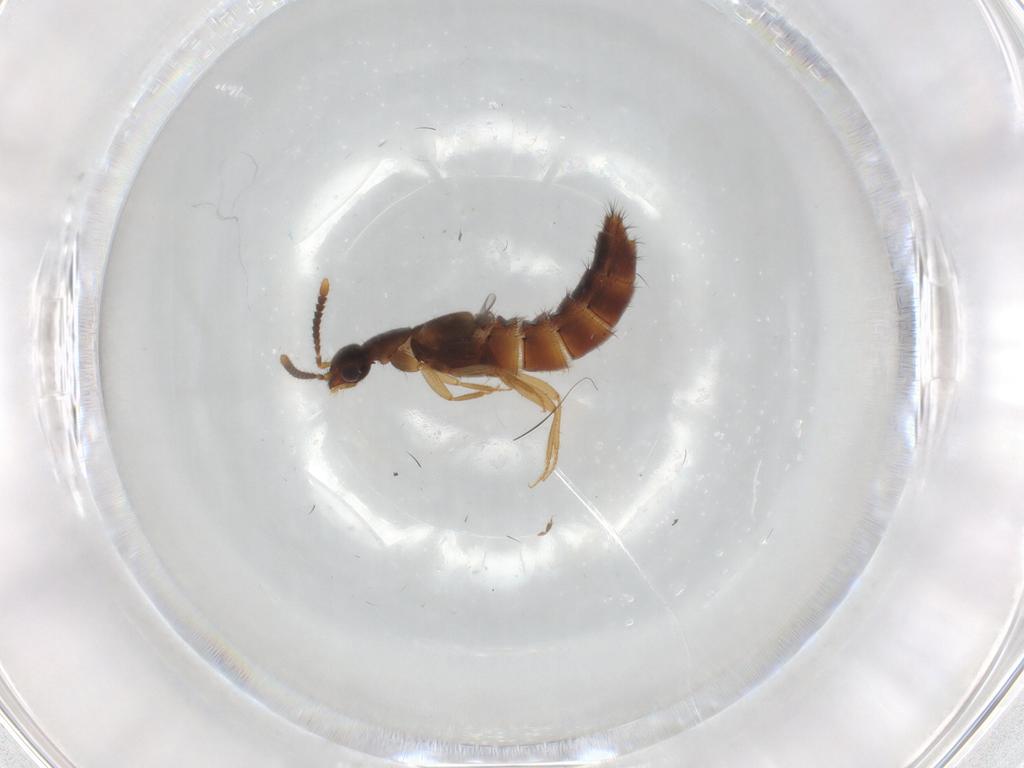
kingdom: Animalia
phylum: Arthropoda
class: Insecta
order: Coleoptera
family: Staphylinidae
